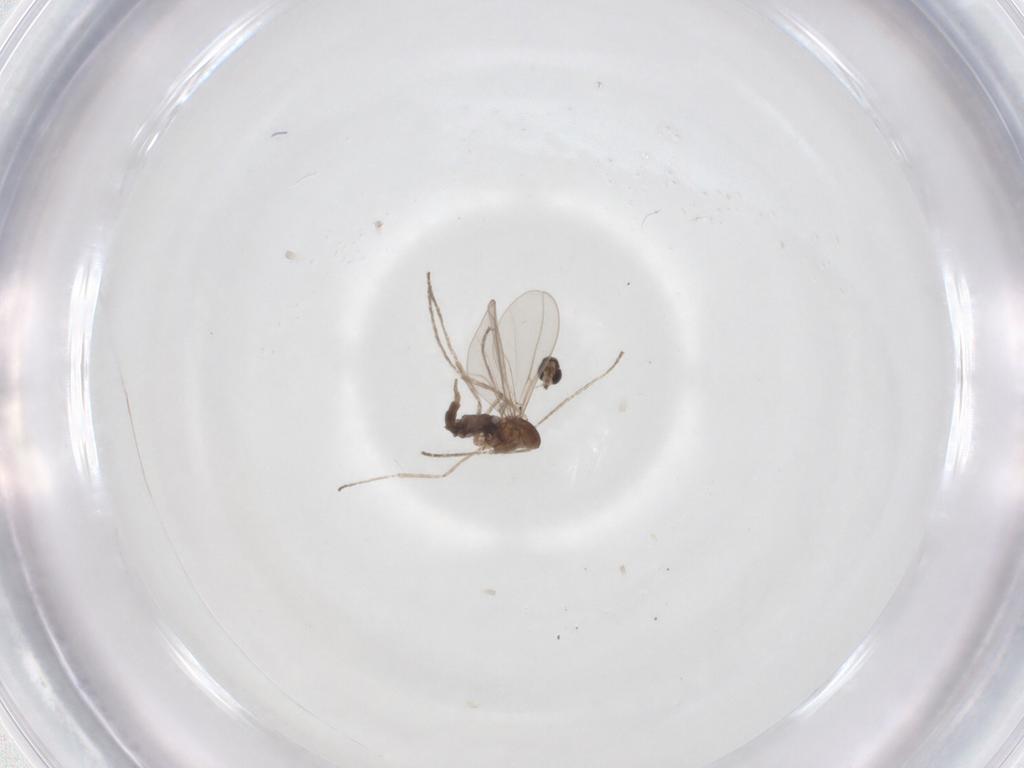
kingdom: Animalia
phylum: Arthropoda
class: Insecta
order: Diptera
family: Cecidomyiidae
